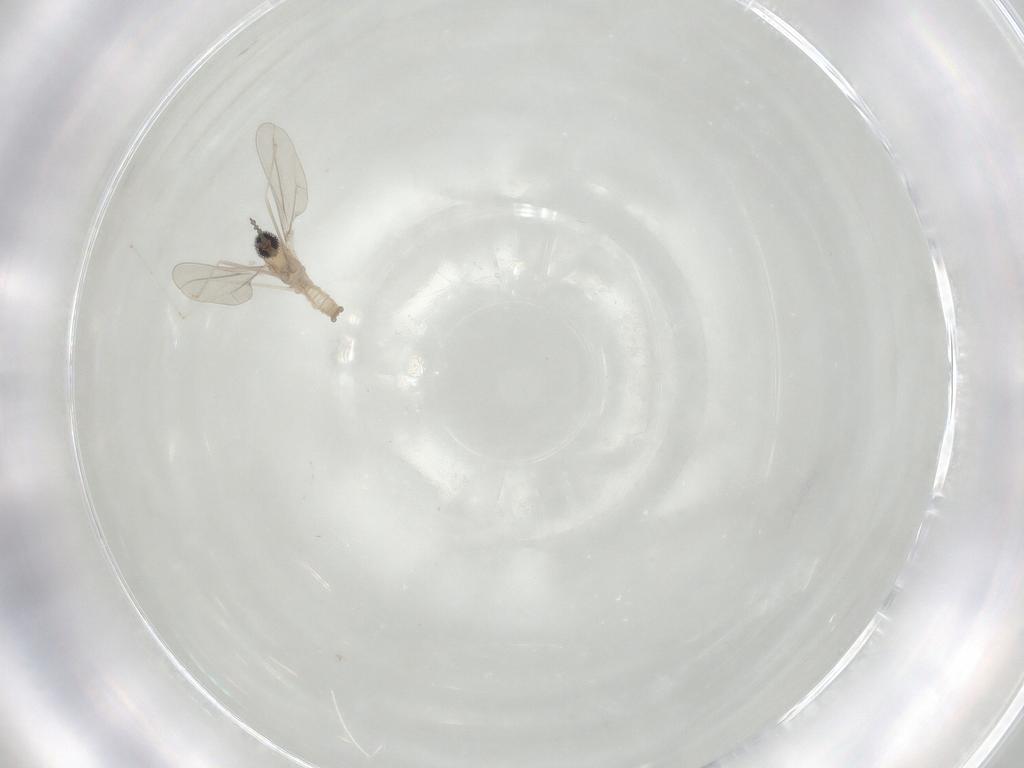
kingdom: Animalia
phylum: Arthropoda
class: Insecta
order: Diptera
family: Cecidomyiidae
